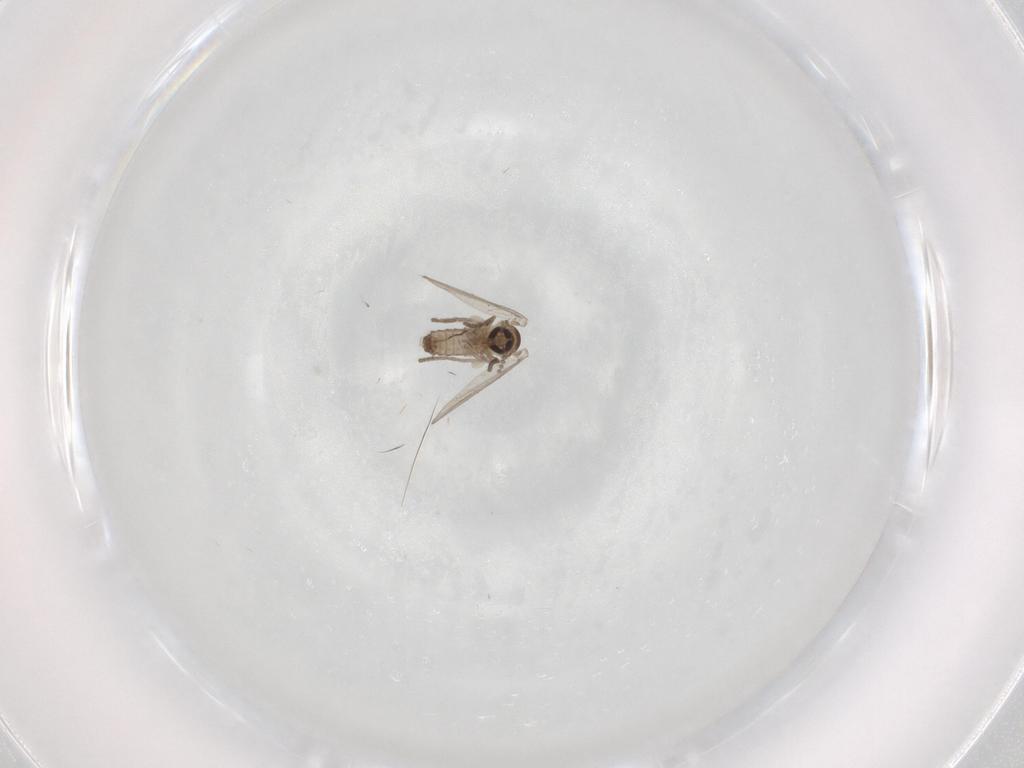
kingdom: Animalia
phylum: Arthropoda
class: Insecta
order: Diptera
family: Psychodidae
